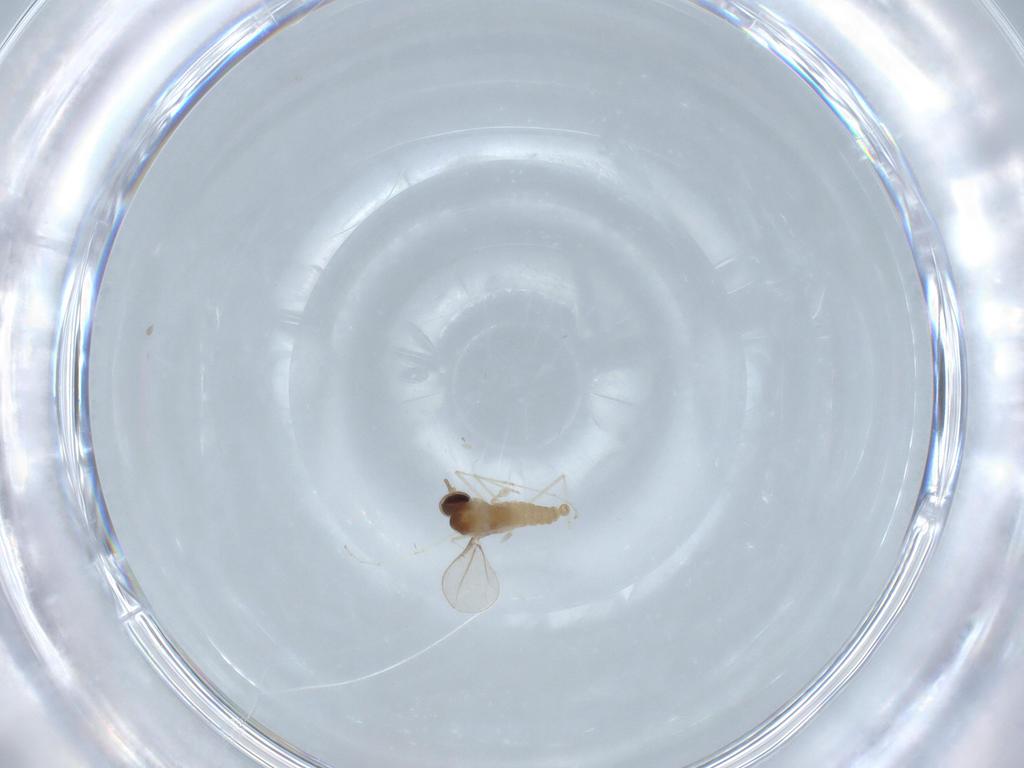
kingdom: Animalia
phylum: Arthropoda
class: Insecta
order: Diptera
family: Cecidomyiidae
